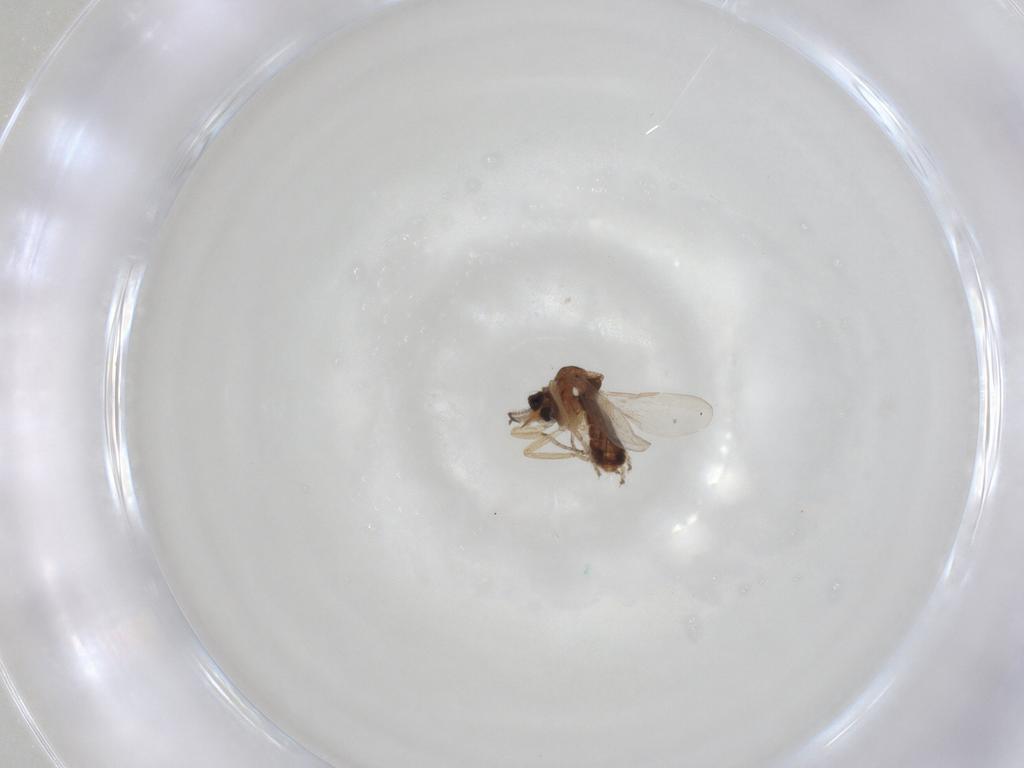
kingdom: Animalia
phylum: Arthropoda
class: Insecta
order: Diptera
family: Ceratopogonidae
